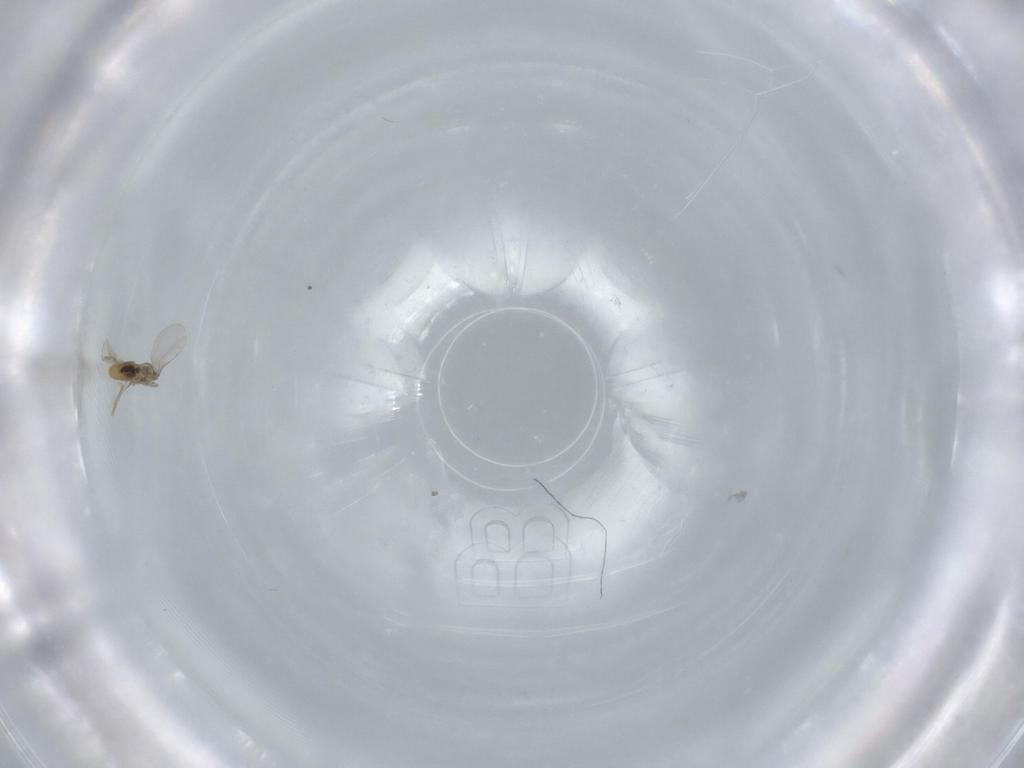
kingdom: Animalia
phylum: Arthropoda
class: Insecta
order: Diptera
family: Cecidomyiidae
